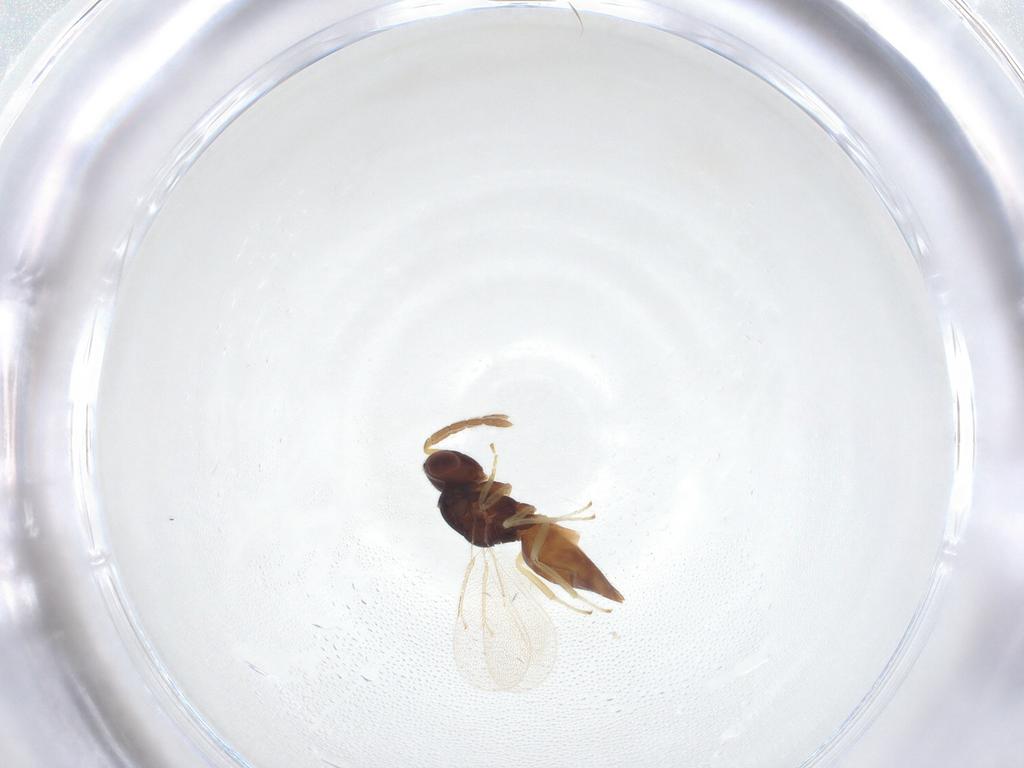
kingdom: Animalia
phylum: Arthropoda
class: Insecta
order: Hymenoptera
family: Eulophidae
